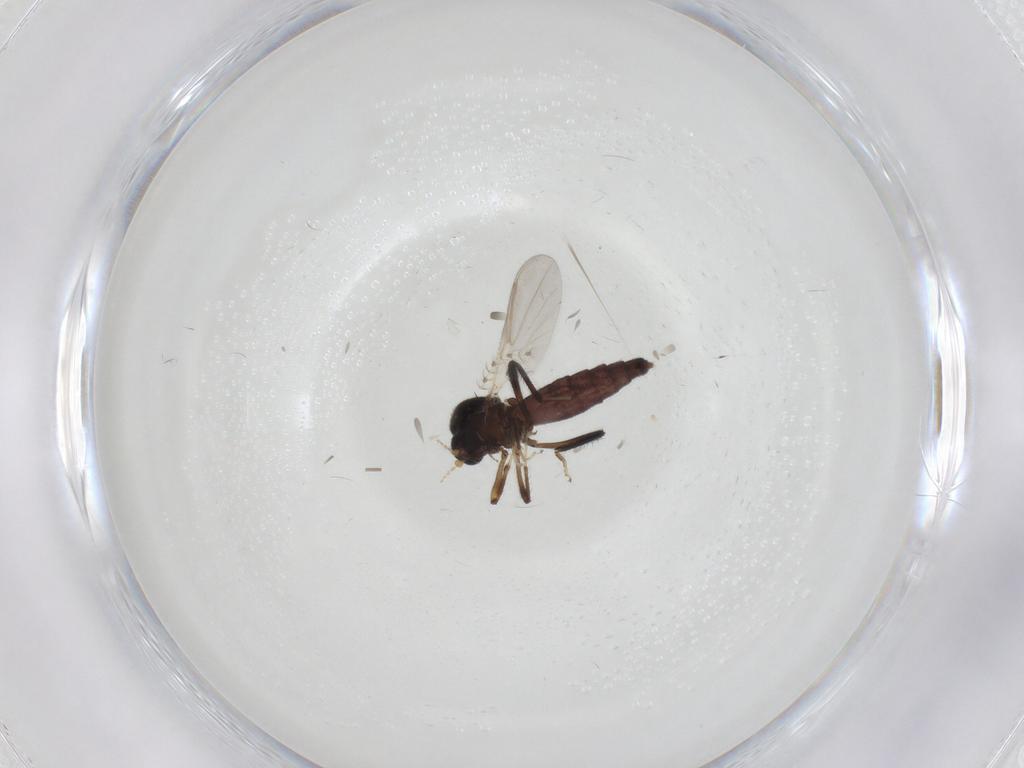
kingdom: Animalia
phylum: Arthropoda
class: Insecta
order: Diptera
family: Ceratopogonidae
